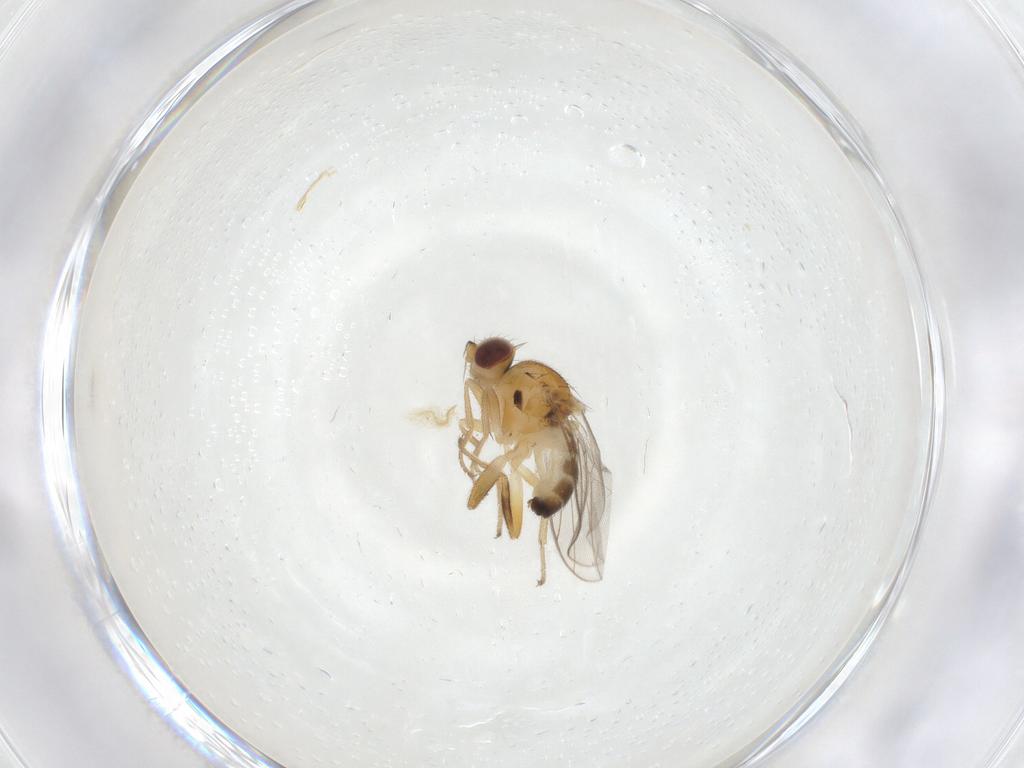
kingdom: Animalia
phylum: Arthropoda
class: Insecta
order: Diptera
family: Chloropidae
